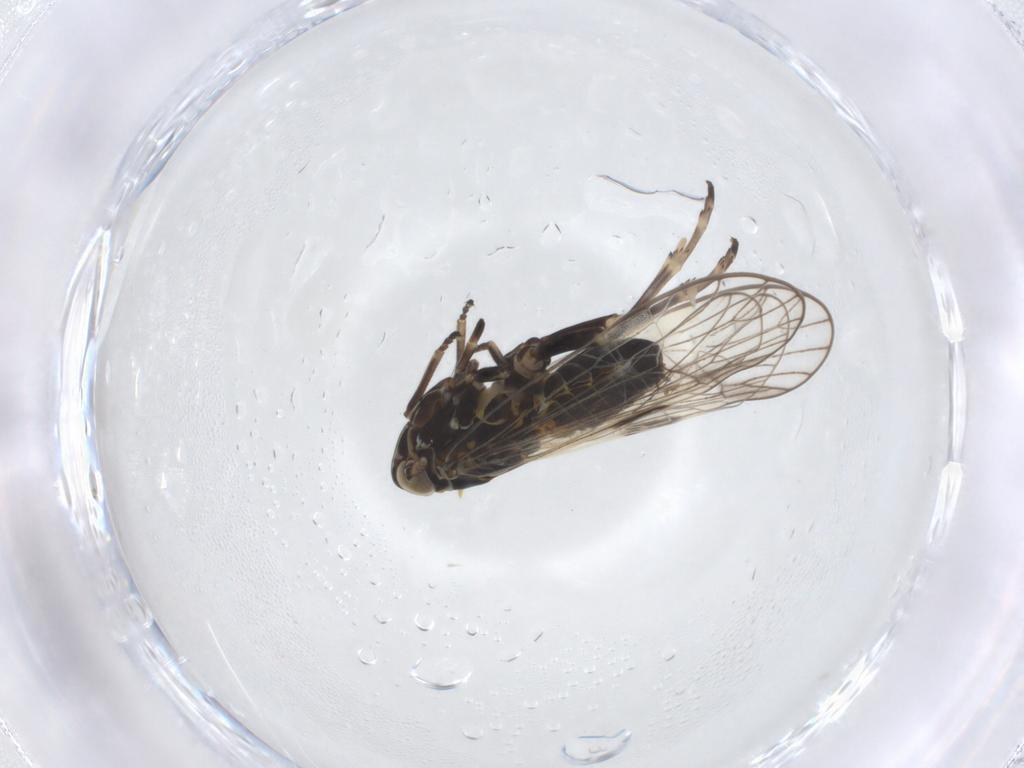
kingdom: Animalia
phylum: Arthropoda
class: Insecta
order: Hemiptera
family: Delphacidae
